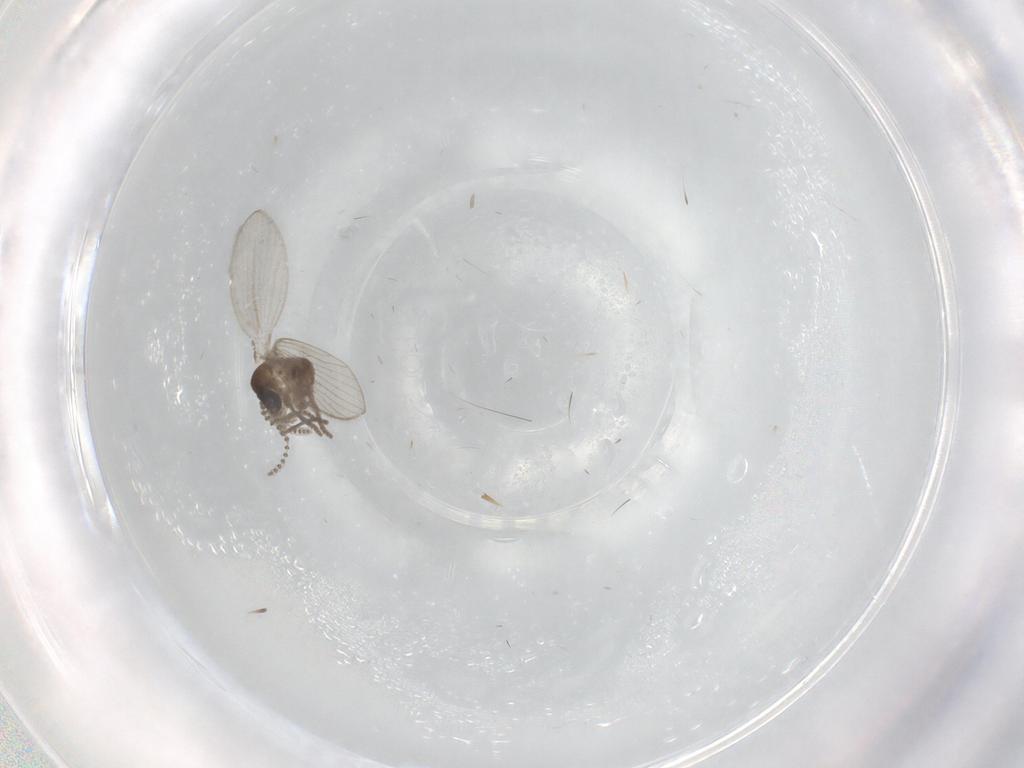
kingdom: Animalia
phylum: Arthropoda
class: Insecta
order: Diptera
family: Psychodidae
